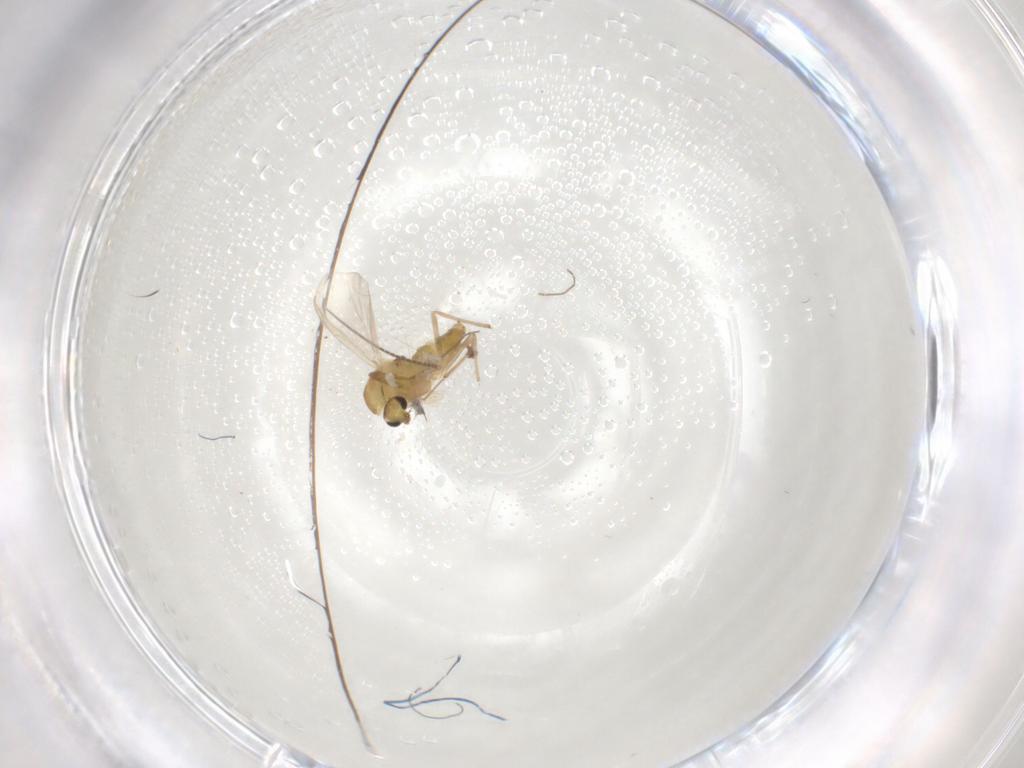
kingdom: Animalia
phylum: Arthropoda
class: Insecta
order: Diptera
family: Chironomidae
